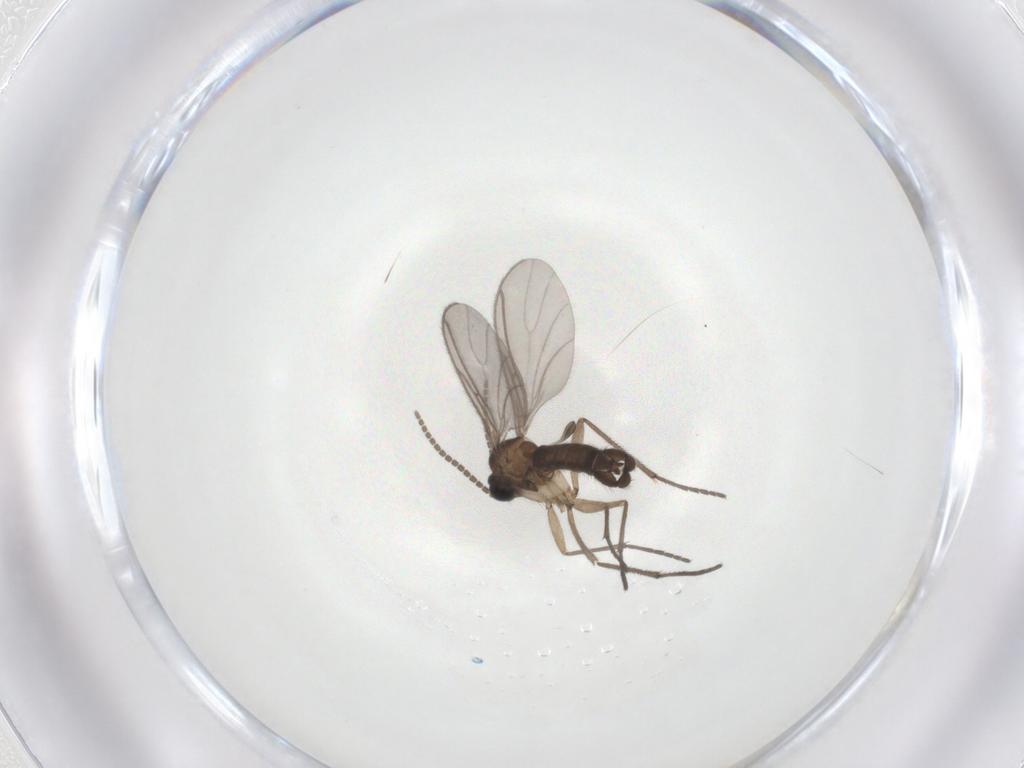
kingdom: Animalia
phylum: Arthropoda
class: Insecta
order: Diptera
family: Sciaridae
